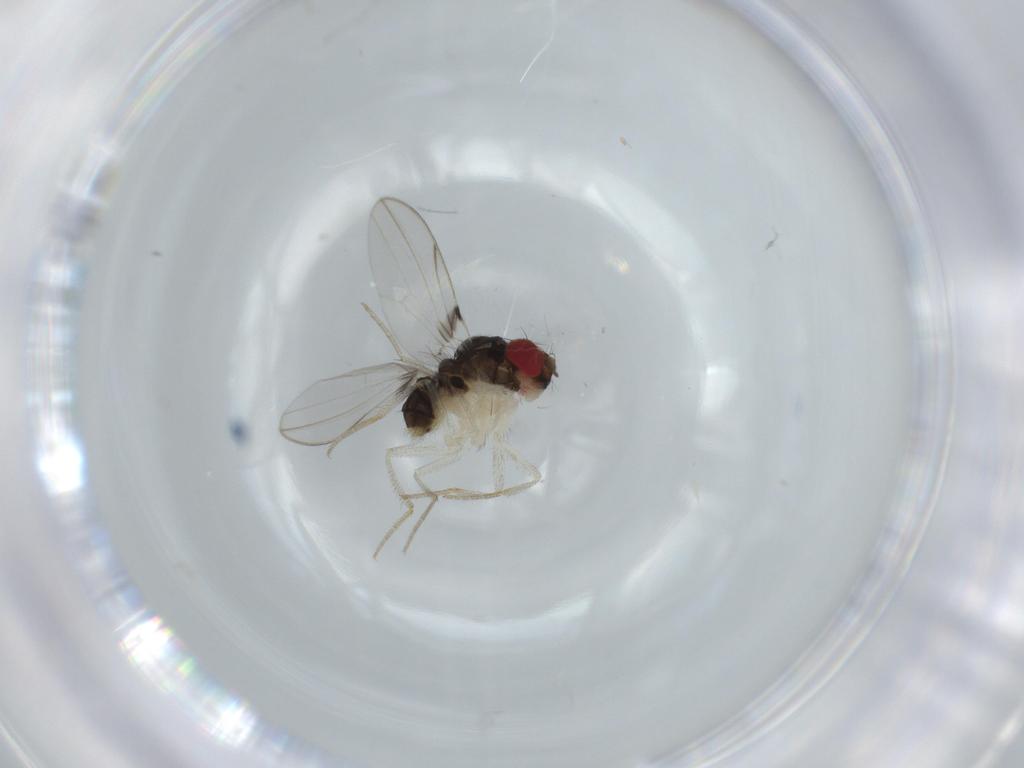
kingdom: Animalia
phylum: Arthropoda
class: Insecta
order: Diptera
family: Drosophilidae
